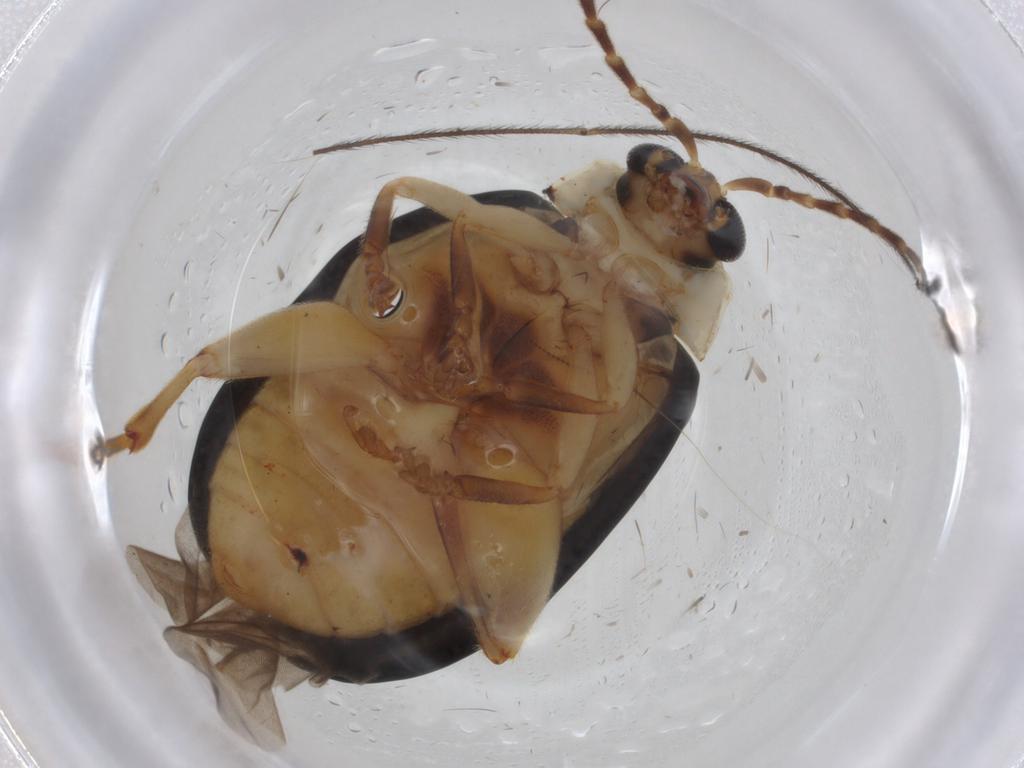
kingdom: Animalia
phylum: Arthropoda
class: Insecta
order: Coleoptera
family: Chrysomelidae
